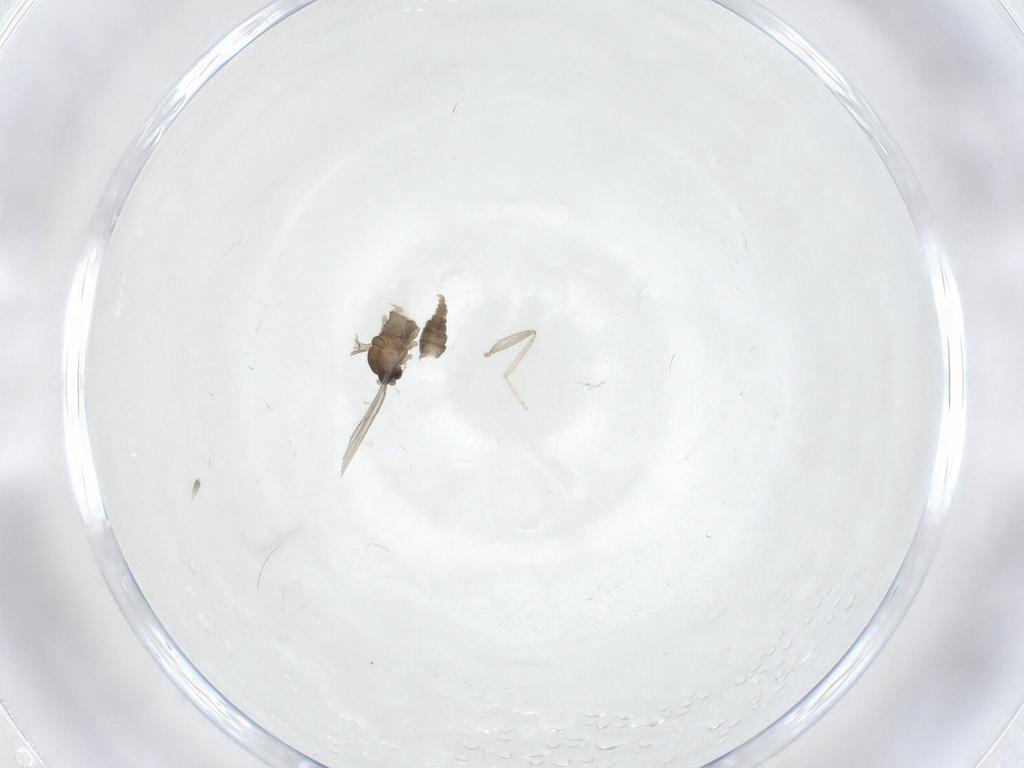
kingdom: Animalia
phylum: Arthropoda
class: Insecta
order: Diptera
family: Cecidomyiidae
